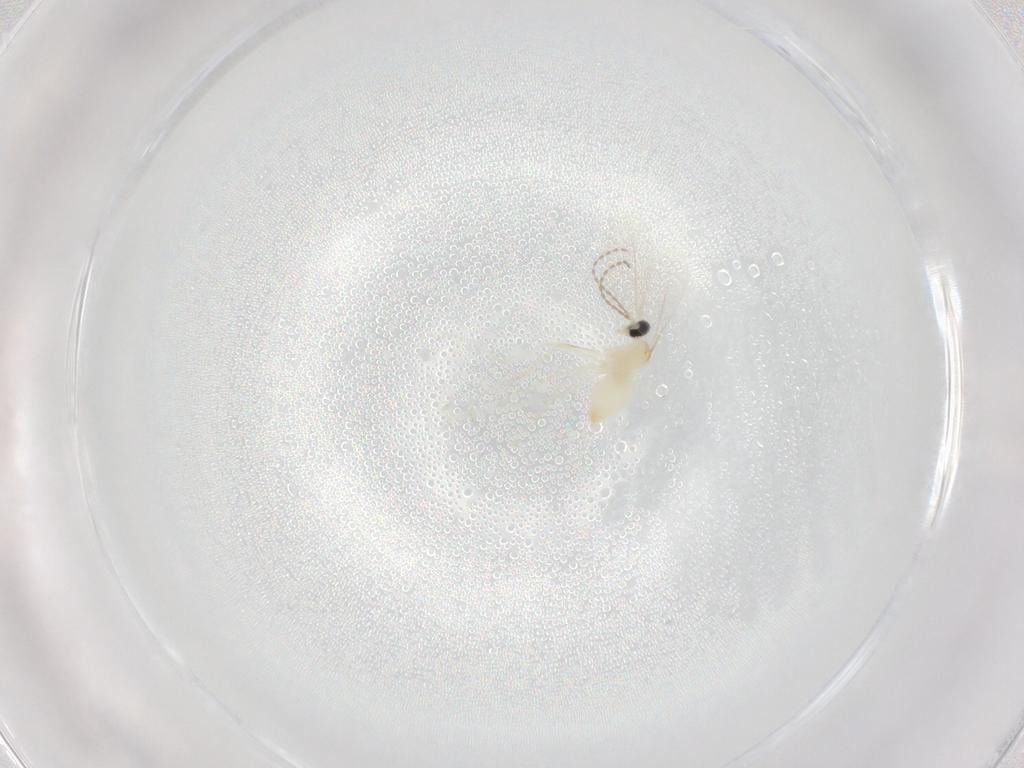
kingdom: Animalia
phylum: Arthropoda
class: Insecta
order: Diptera
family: Cecidomyiidae
